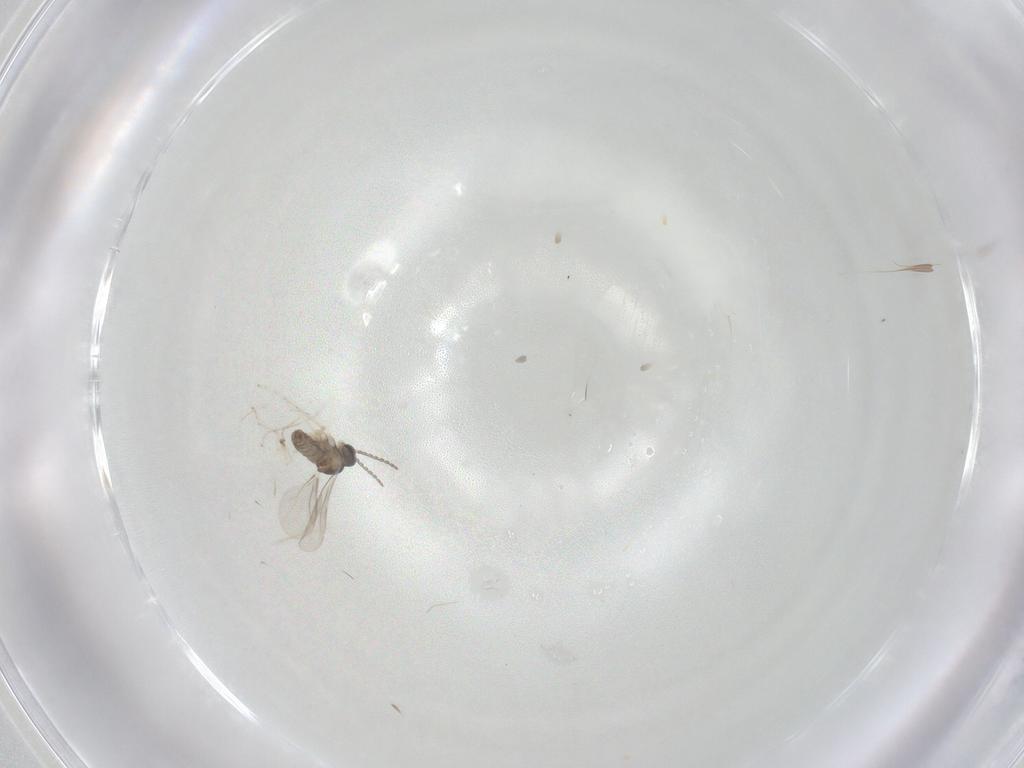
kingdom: Animalia
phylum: Arthropoda
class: Insecta
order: Diptera
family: Cecidomyiidae
